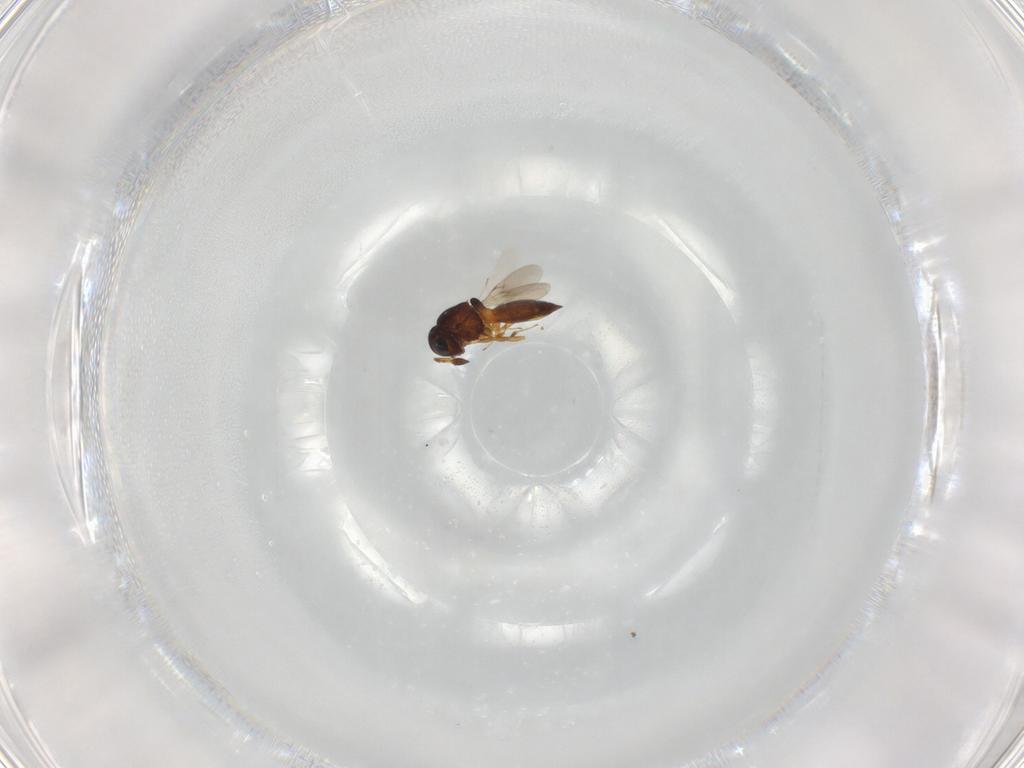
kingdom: Animalia
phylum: Arthropoda
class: Insecta
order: Hymenoptera
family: Scelionidae
